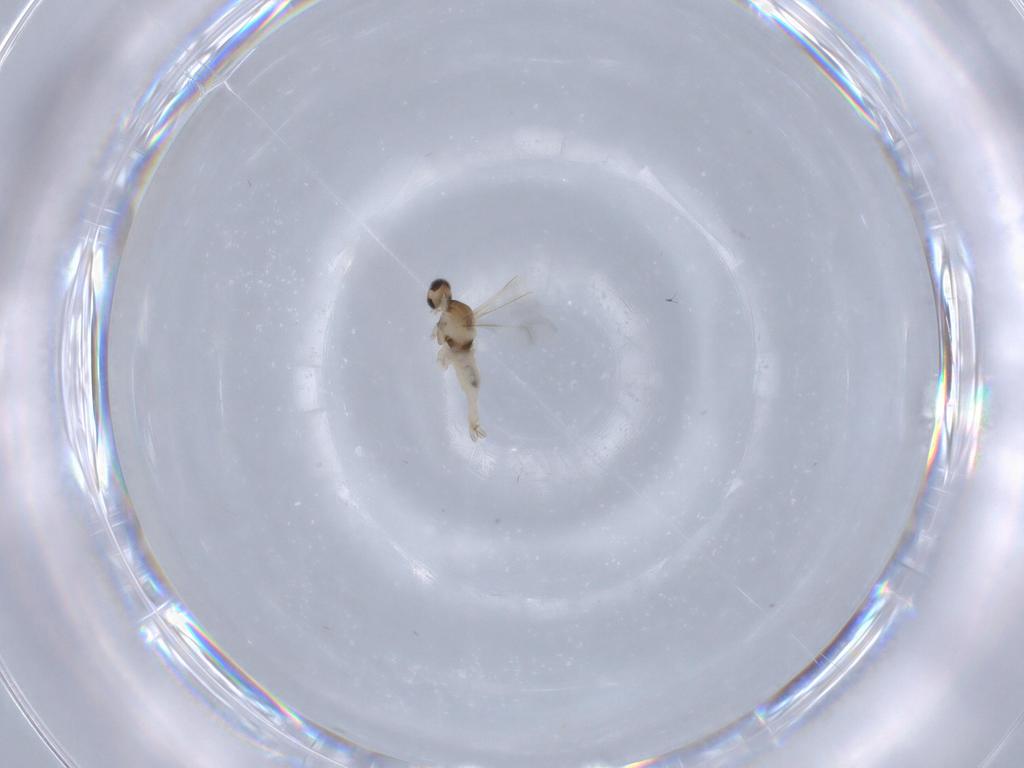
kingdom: Animalia
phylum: Arthropoda
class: Insecta
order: Diptera
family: Cecidomyiidae
